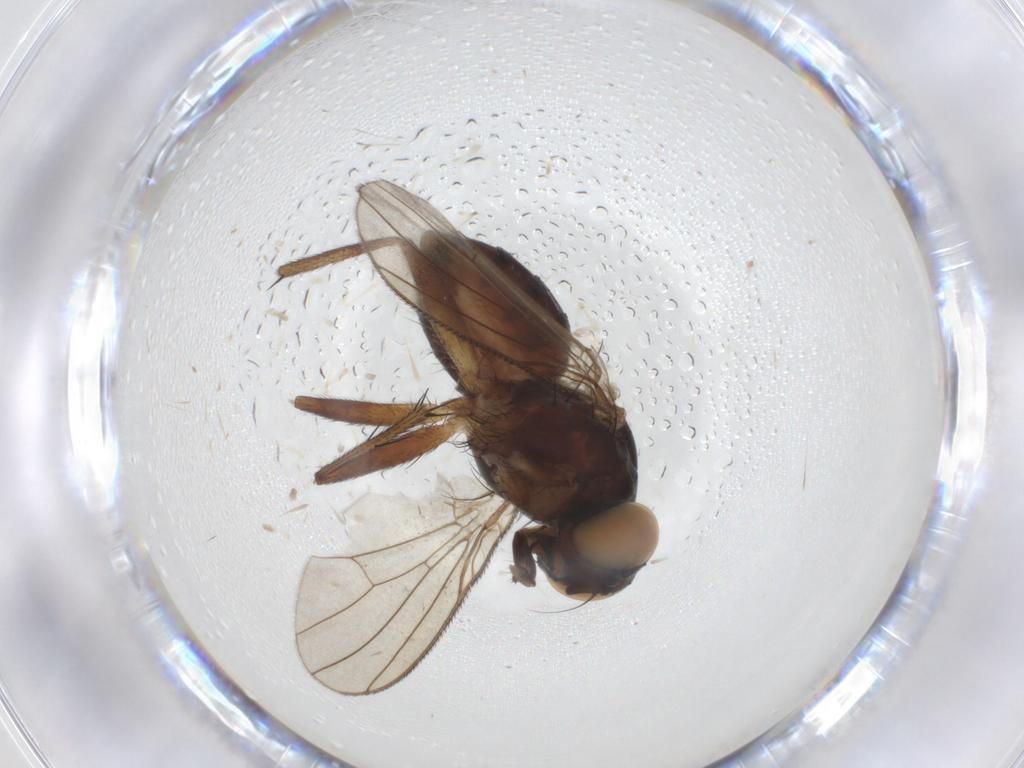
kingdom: Animalia
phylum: Arthropoda
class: Insecta
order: Diptera
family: Muscidae
